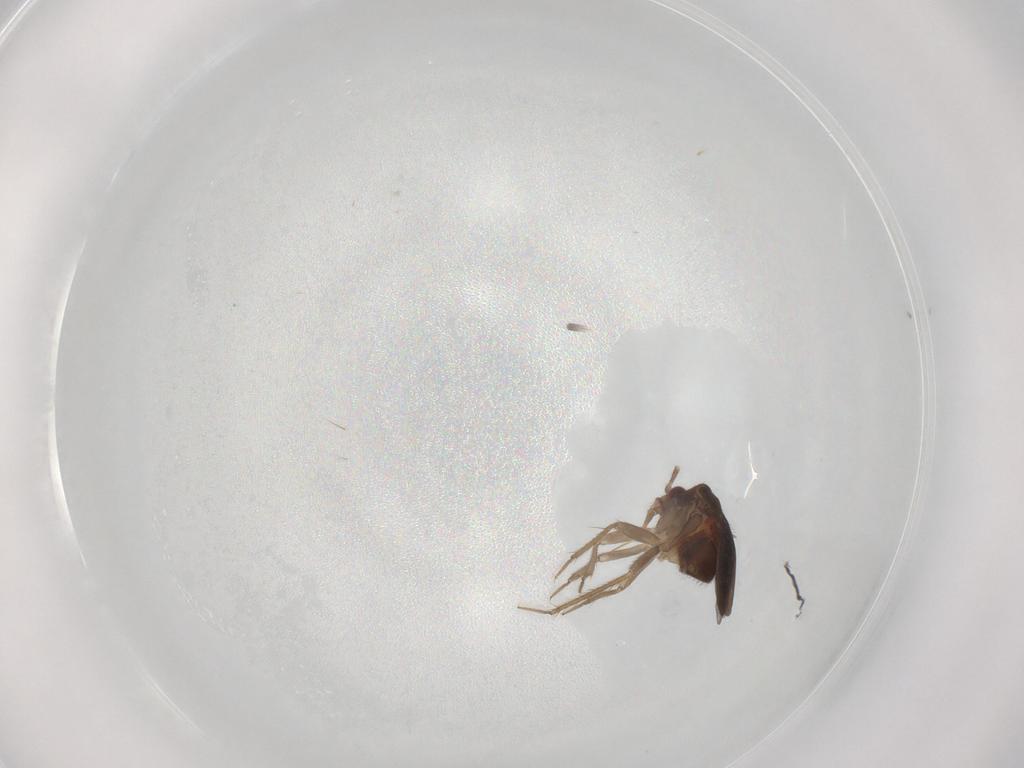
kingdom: Animalia
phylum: Arthropoda
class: Insecta
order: Hemiptera
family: Ceratocombidae
